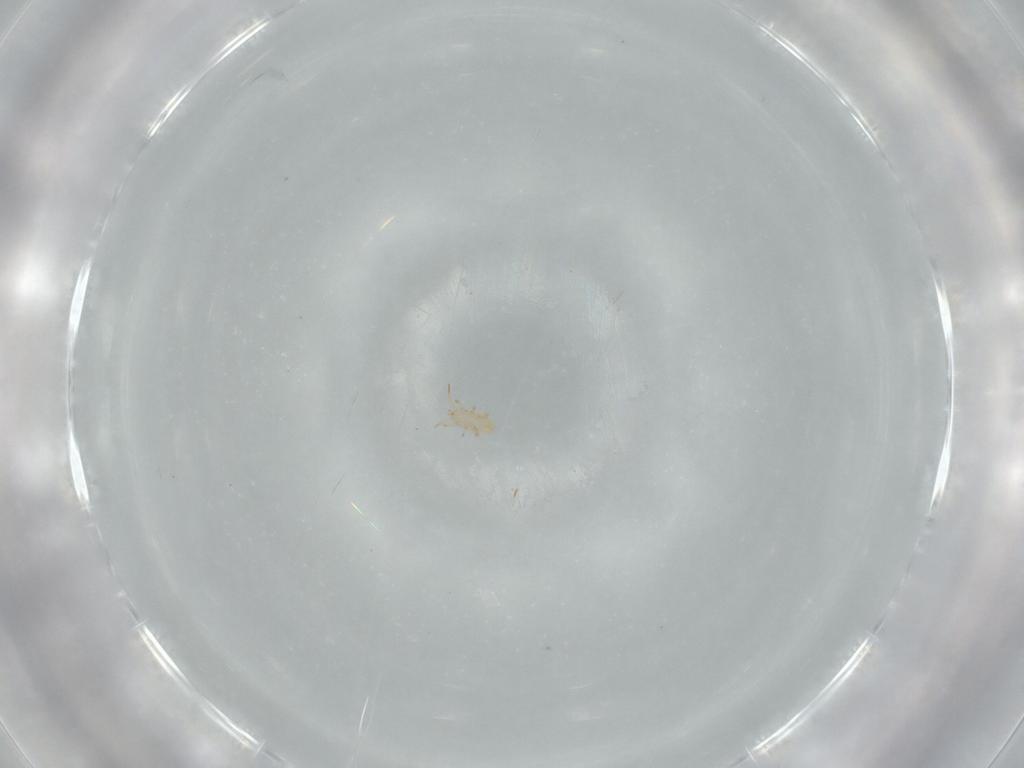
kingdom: Animalia
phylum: Arthropoda
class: Arachnida
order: Mesostigmata
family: Blattisociidae
